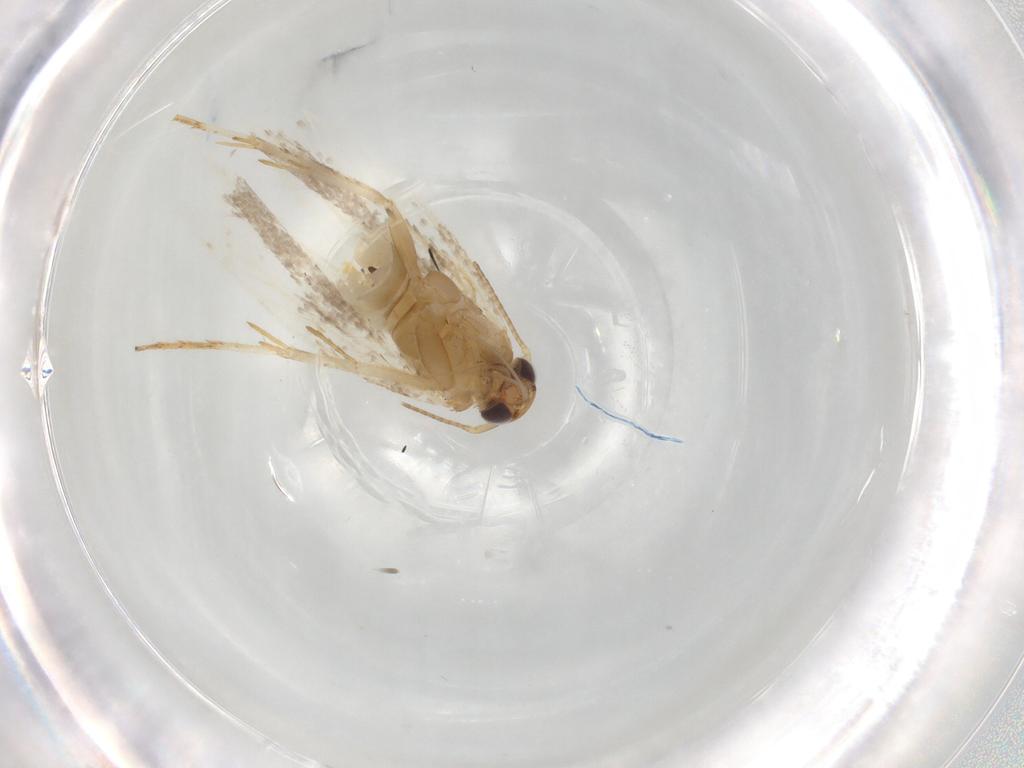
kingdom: Animalia
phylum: Arthropoda
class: Insecta
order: Lepidoptera
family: Gelechiidae
